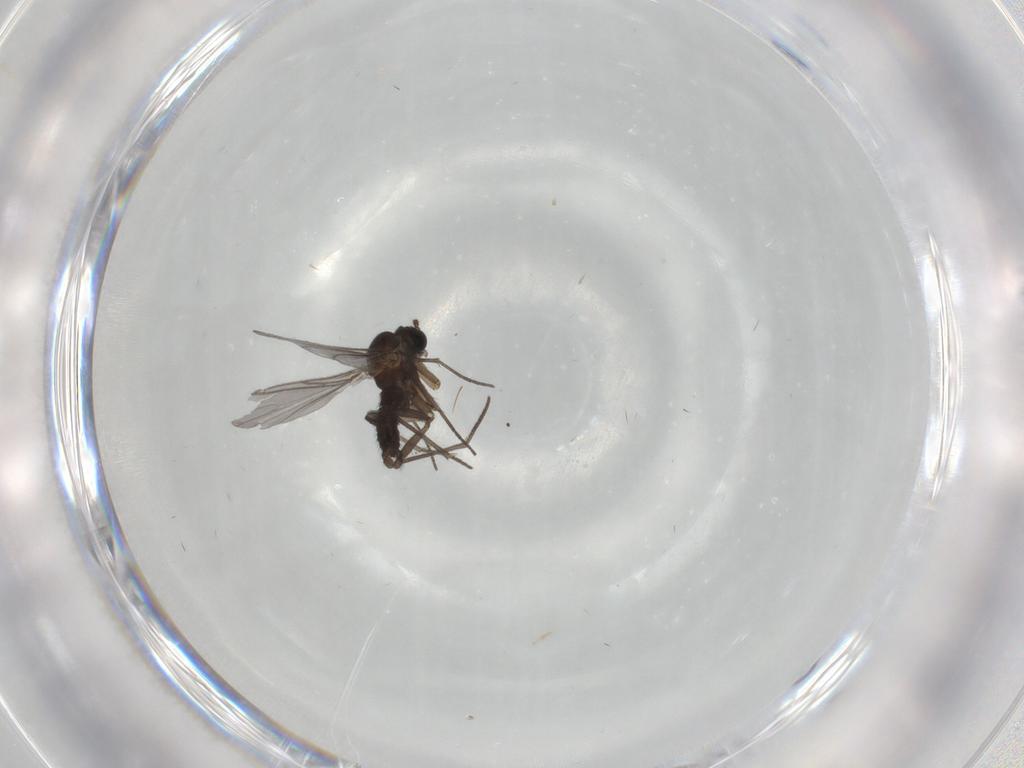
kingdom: Animalia
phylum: Arthropoda
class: Insecta
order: Diptera
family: Sciaridae
